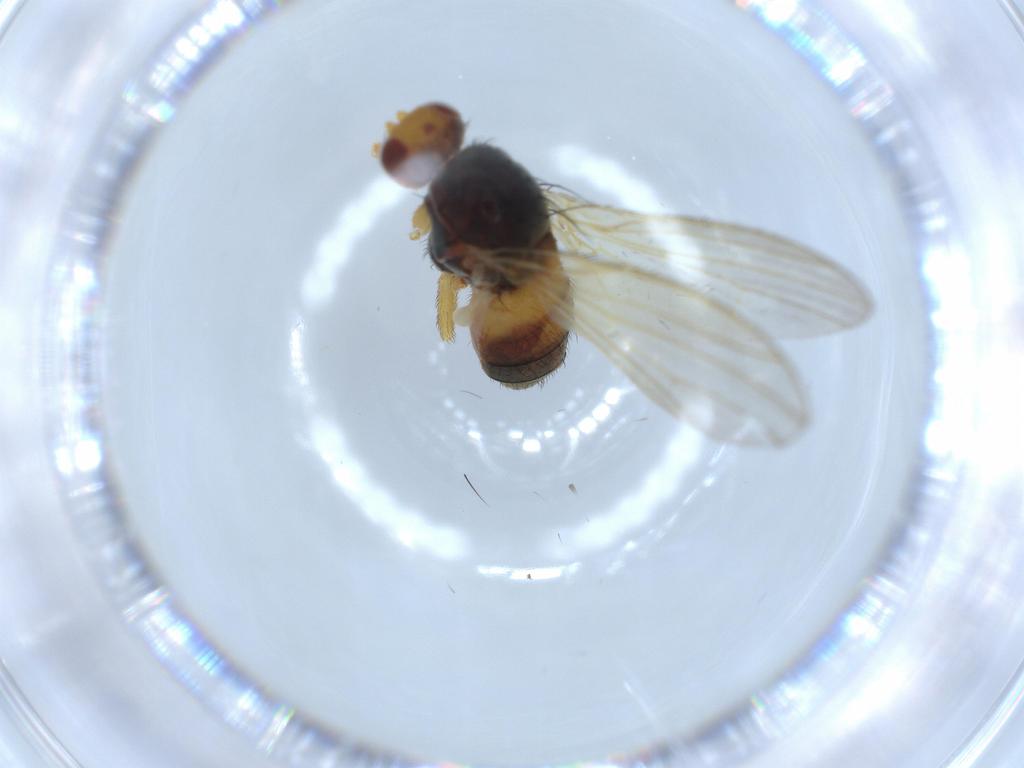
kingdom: Animalia
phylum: Arthropoda
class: Insecta
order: Diptera
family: Heleomyzidae
